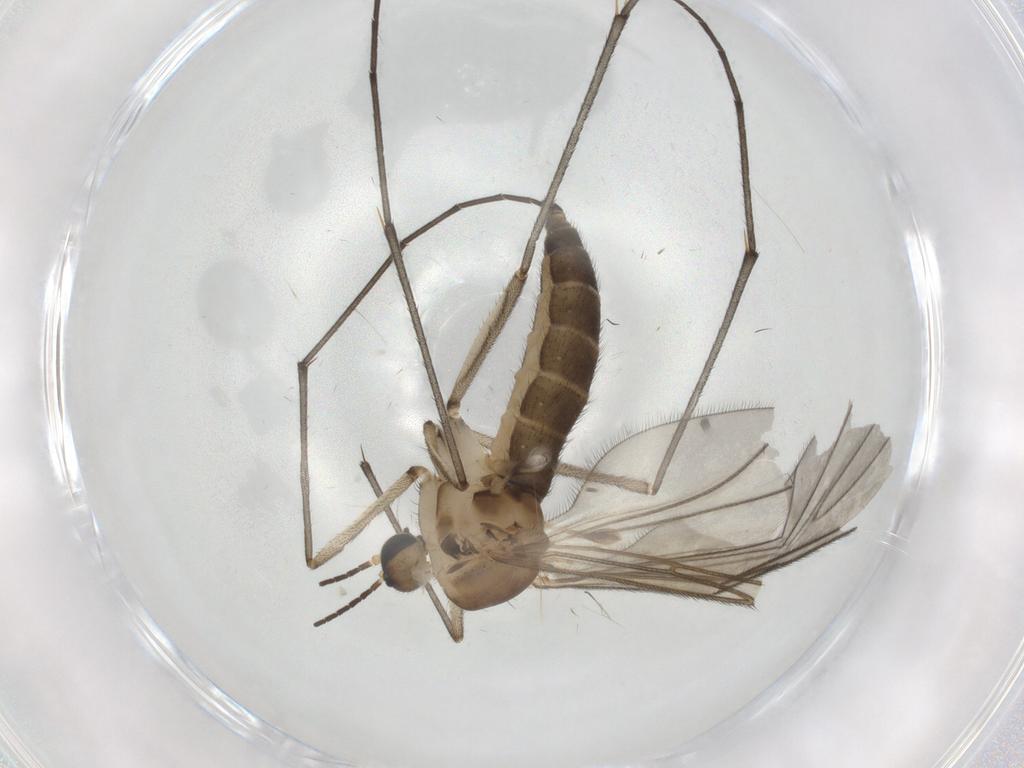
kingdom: Animalia
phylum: Arthropoda
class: Insecta
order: Diptera
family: Sciaridae
